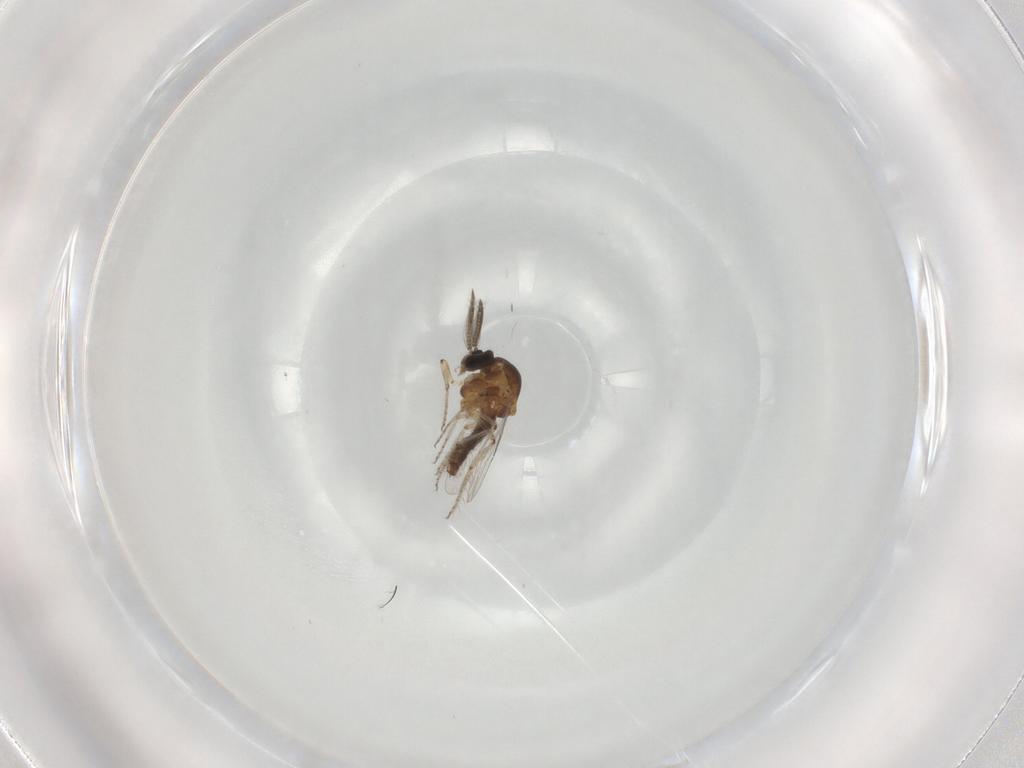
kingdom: Animalia
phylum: Arthropoda
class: Insecta
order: Diptera
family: Ceratopogonidae
